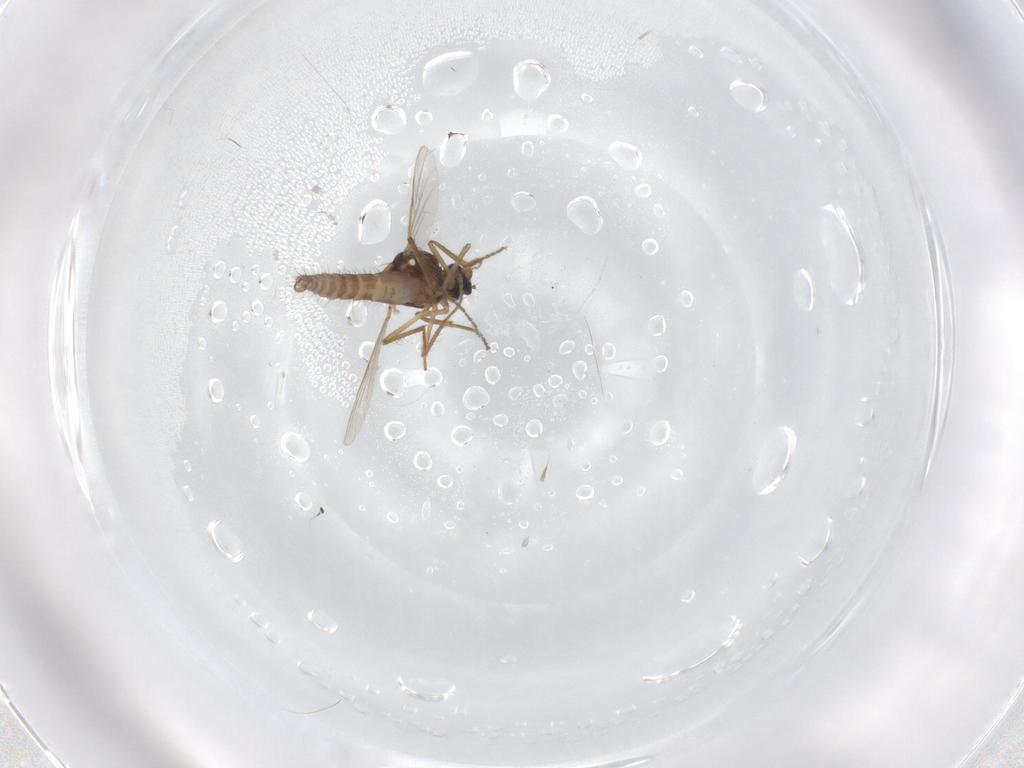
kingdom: Animalia
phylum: Arthropoda
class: Insecta
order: Diptera
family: Ceratopogonidae
